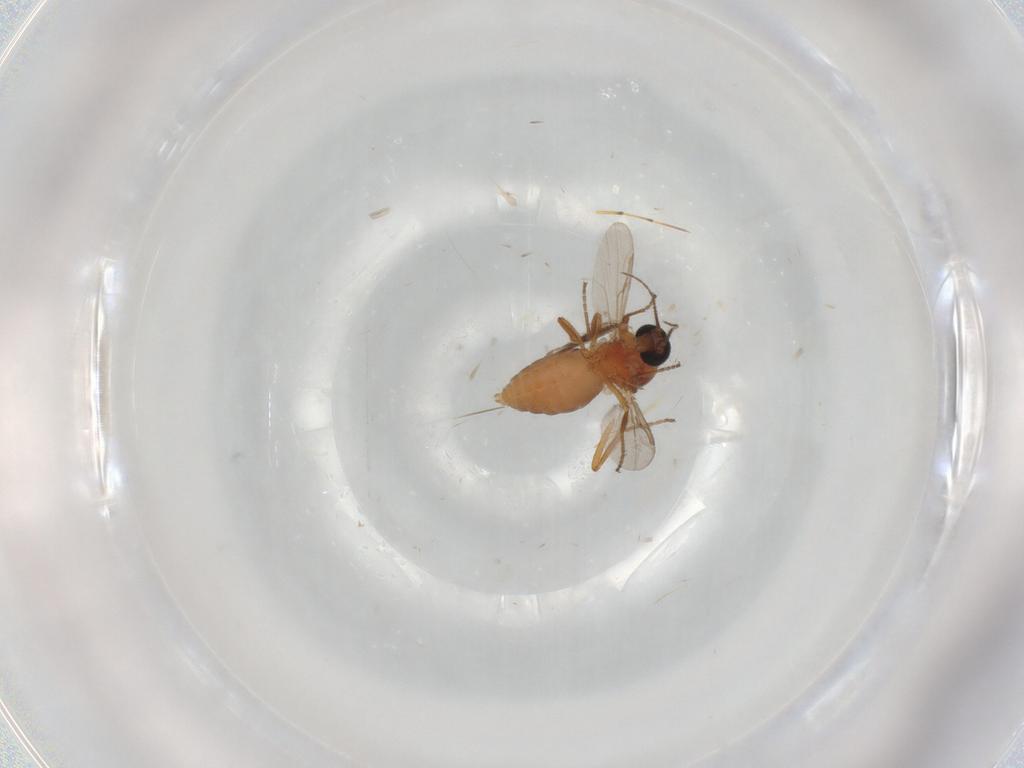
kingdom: Animalia
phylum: Arthropoda
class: Insecta
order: Diptera
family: Ceratopogonidae
